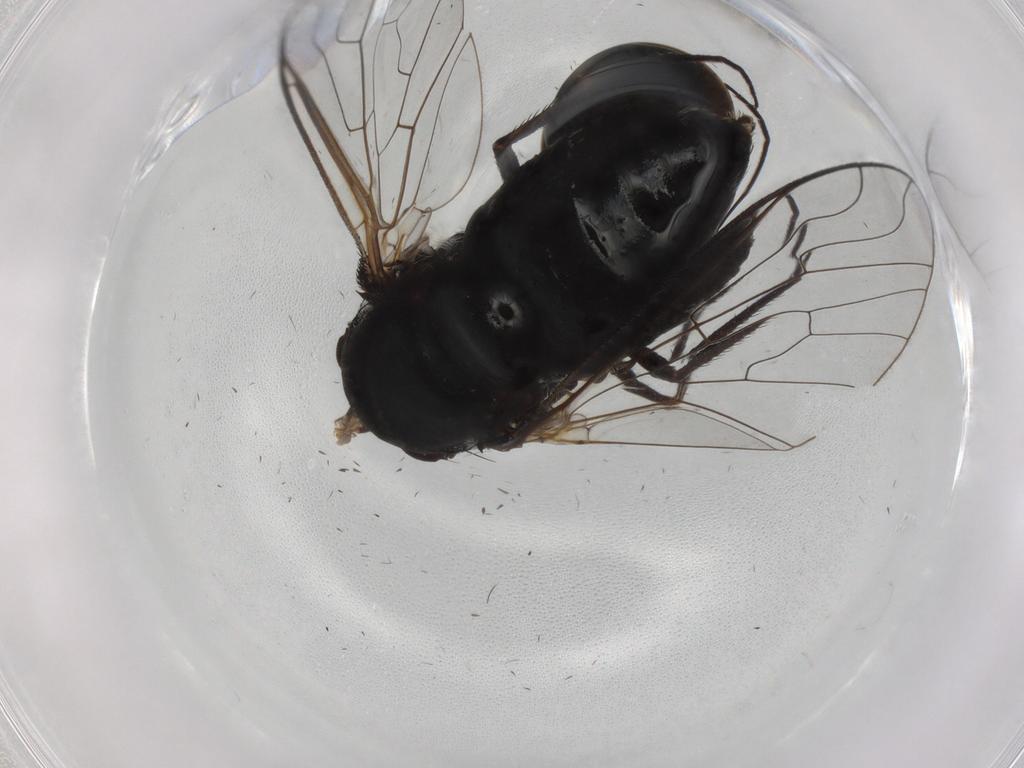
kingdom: Animalia
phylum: Arthropoda
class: Insecta
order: Diptera
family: Bombyliidae
